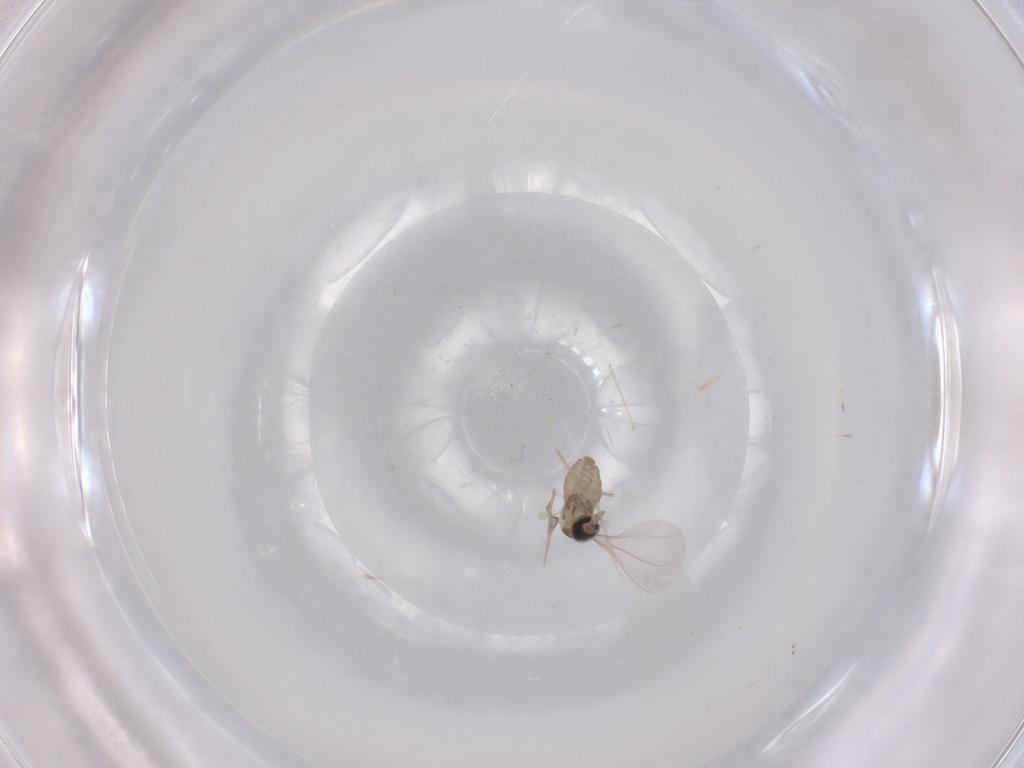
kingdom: Animalia
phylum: Arthropoda
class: Insecta
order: Diptera
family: Cecidomyiidae
